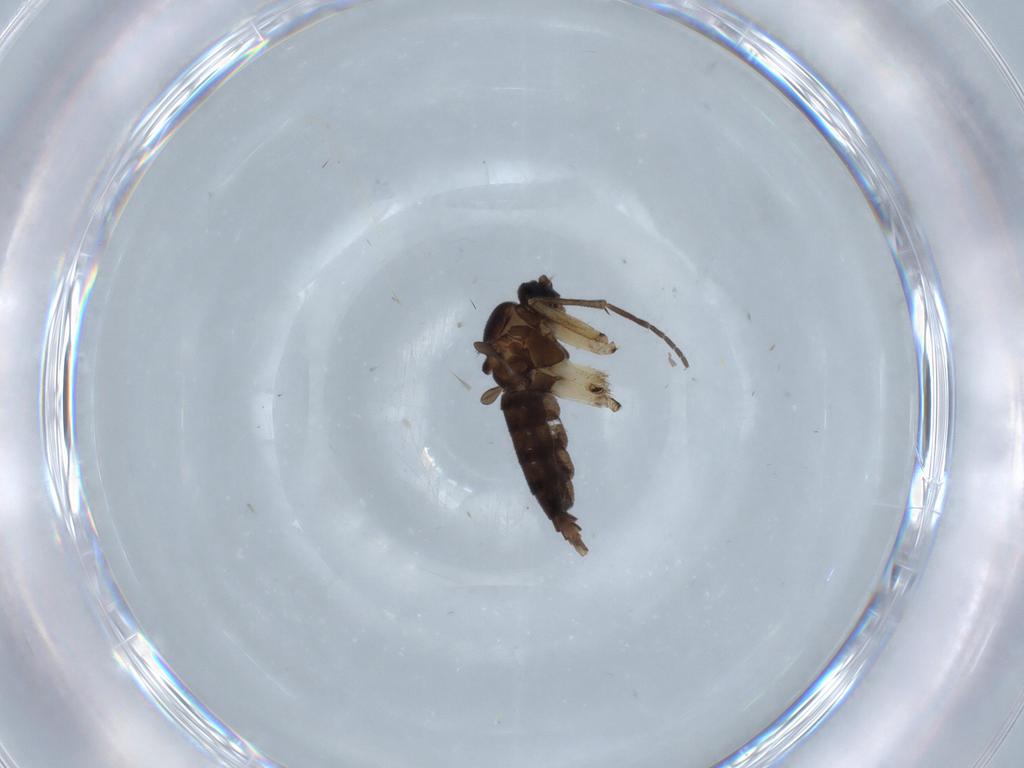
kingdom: Animalia
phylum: Arthropoda
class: Insecta
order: Diptera
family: Sciaridae
